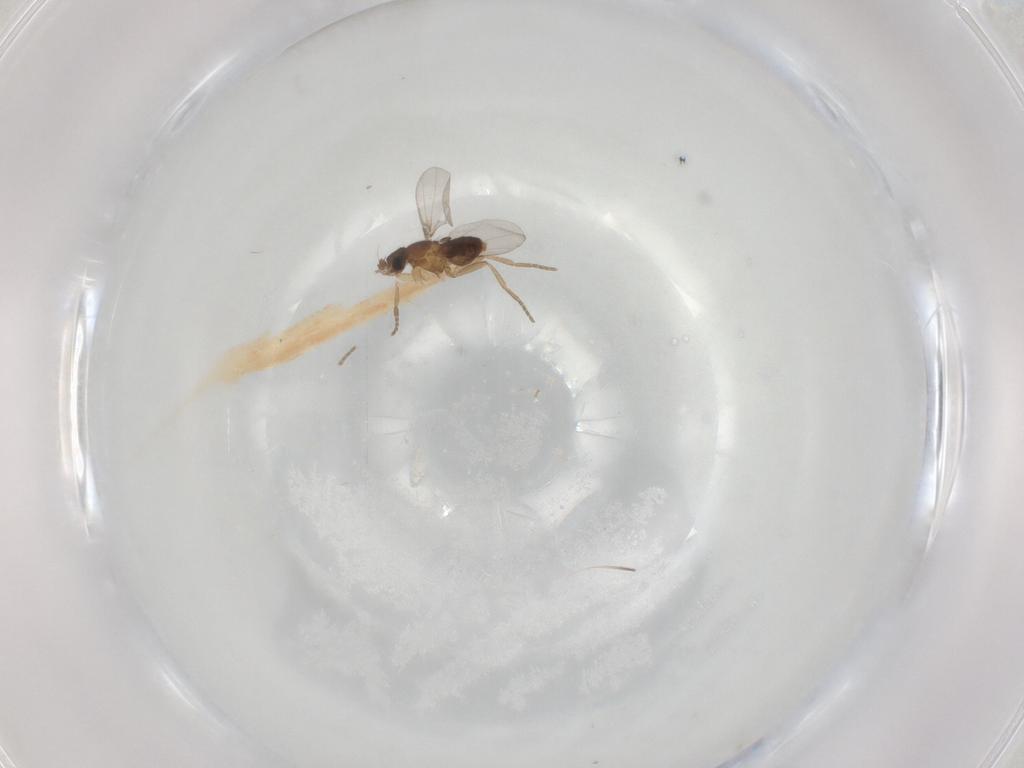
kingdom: Animalia
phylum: Arthropoda
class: Insecta
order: Diptera
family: Phoridae
